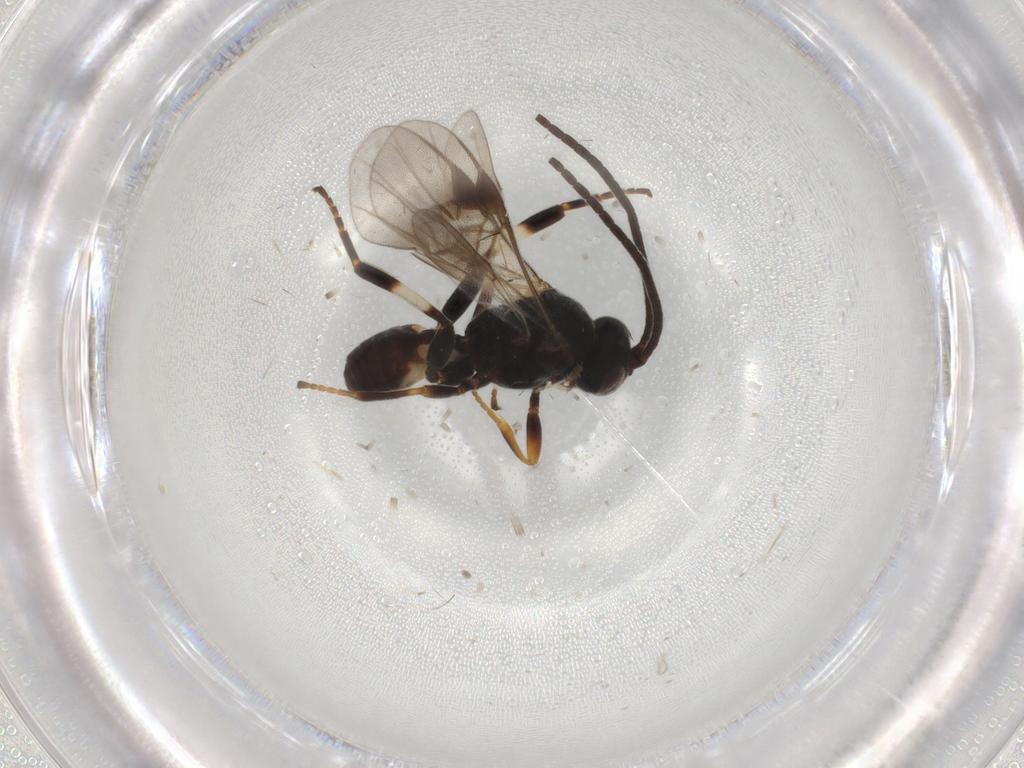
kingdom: Animalia
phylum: Arthropoda
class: Insecta
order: Hymenoptera
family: Braconidae
